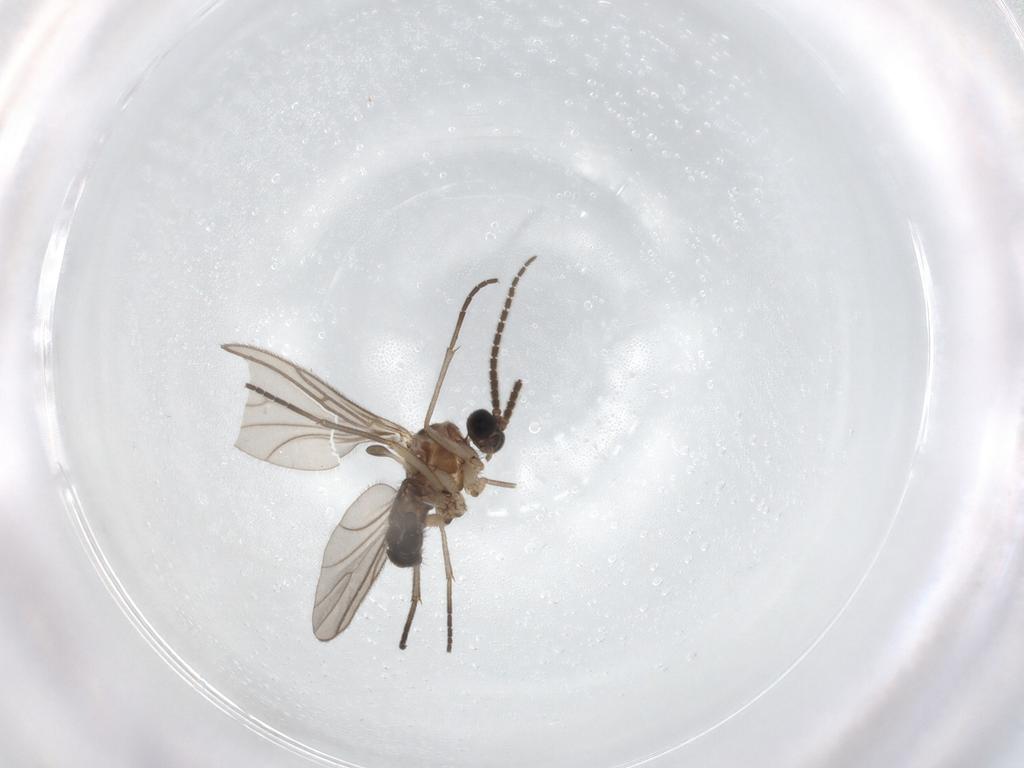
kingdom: Animalia
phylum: Arthropoda
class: Insecta
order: Diptera
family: Sciaridae
